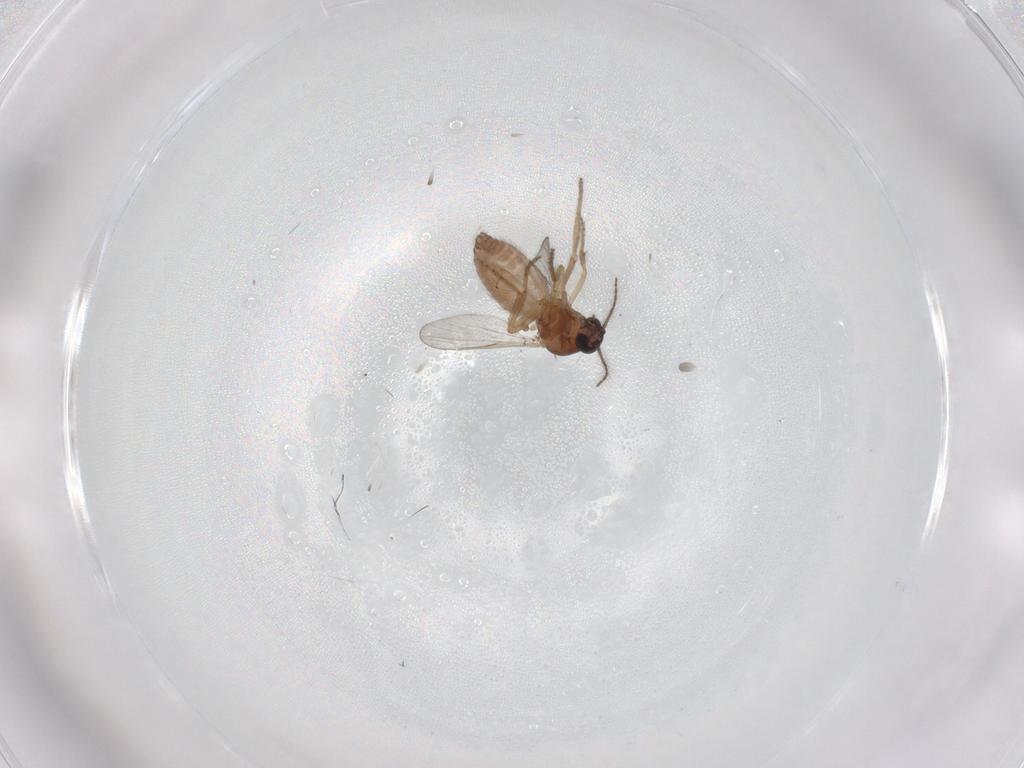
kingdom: Animalia
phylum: Arthropoda
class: Insecta
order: Diptera
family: Ceratopogonidae
